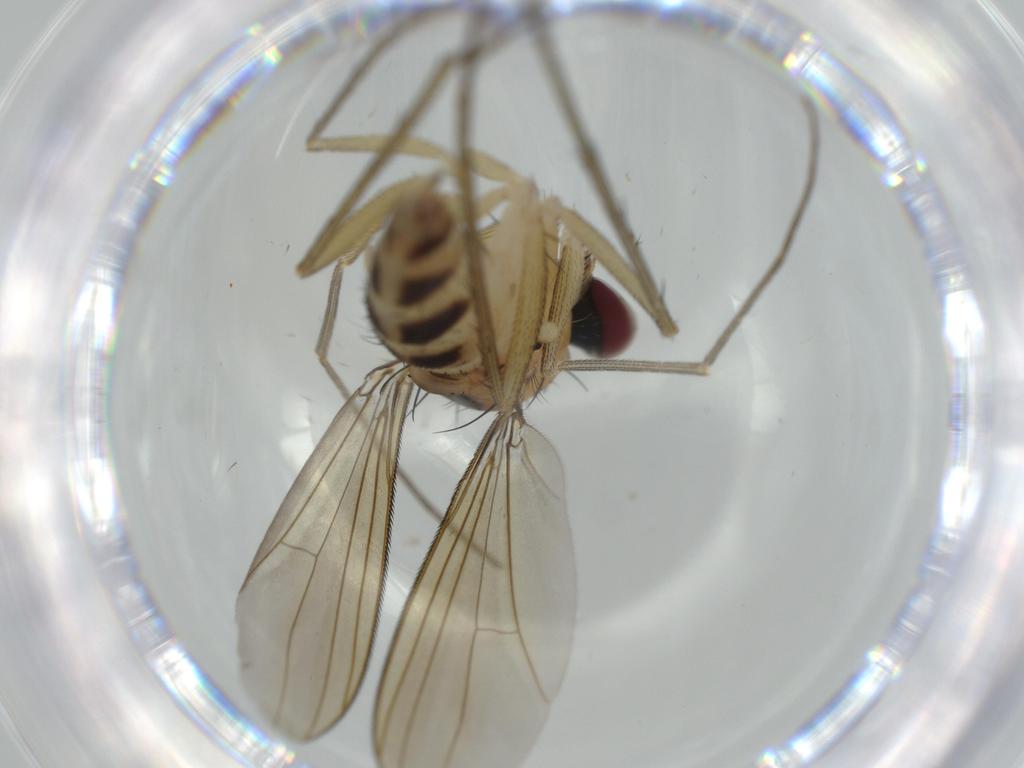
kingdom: Animalia
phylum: Arthropoda
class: Insecta
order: Diptera
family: Dolichopodidae
